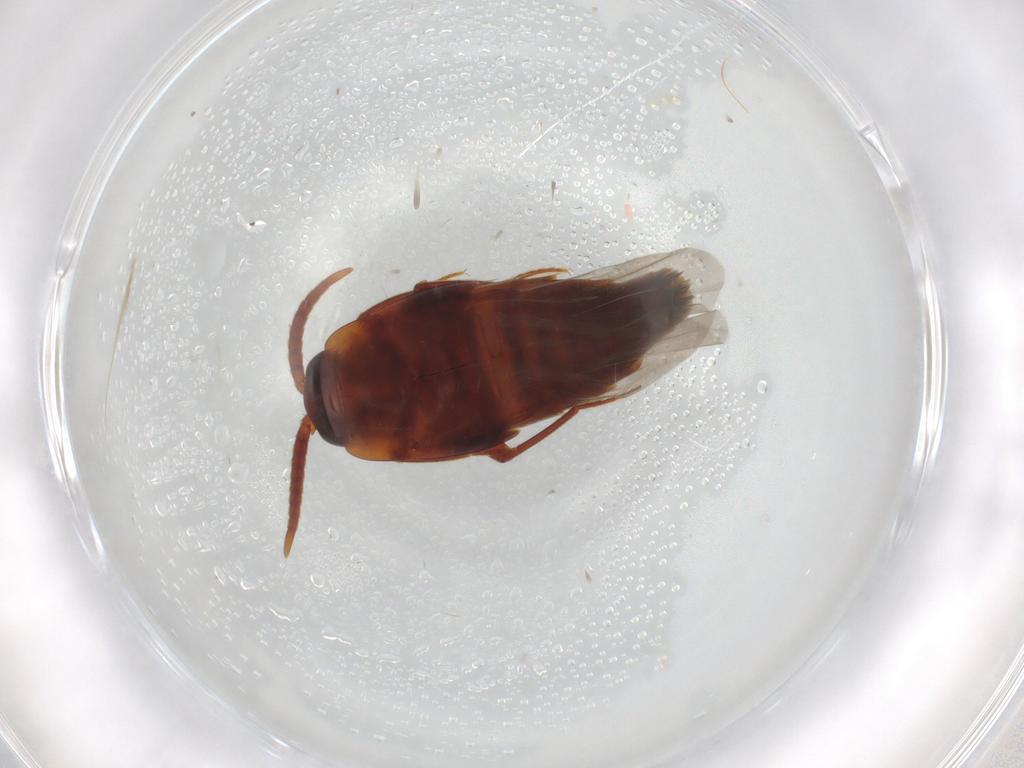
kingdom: Animalia
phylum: Arthropoda
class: Insecta
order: Coleoptera
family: Staphylinidae
